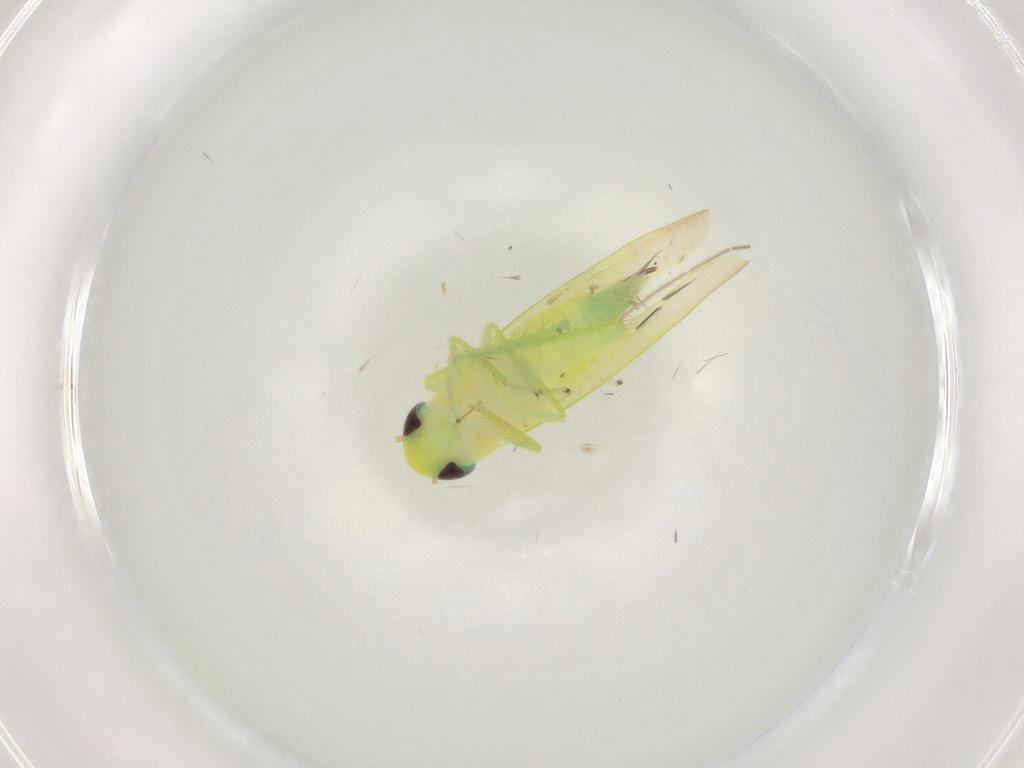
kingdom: Animalia
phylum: Arthropoda
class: Insecta
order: Hemiptera
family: Cicadellidae
